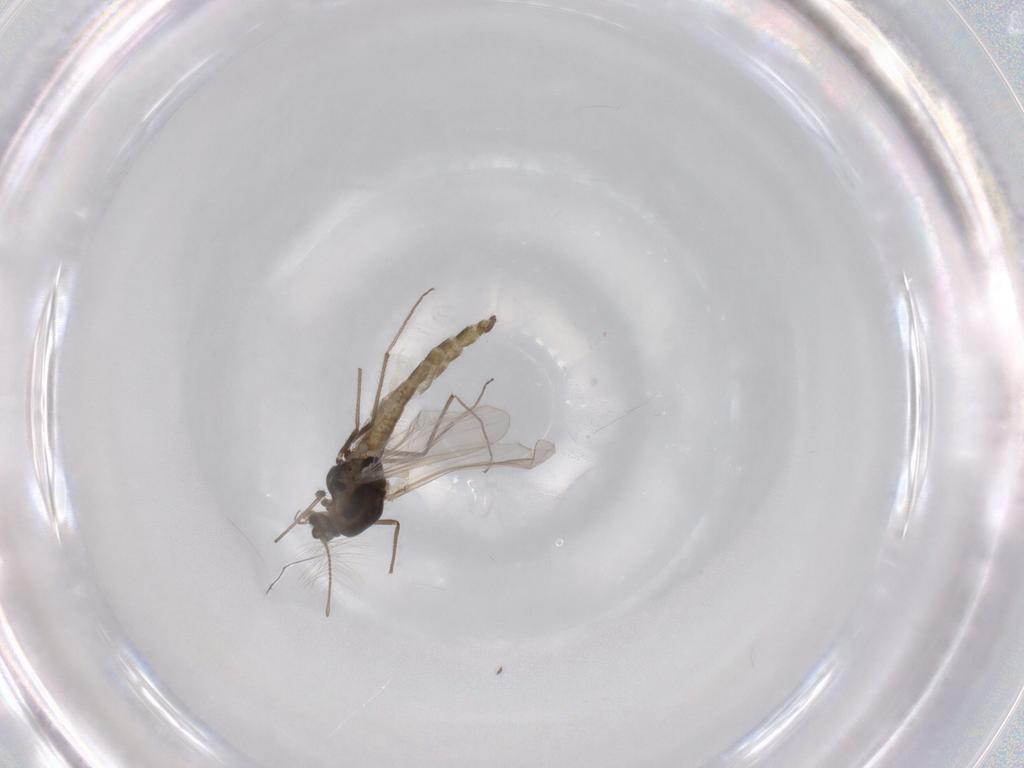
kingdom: Animalia
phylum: Arthropoda
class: Insecta
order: Diptera
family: Chironomidae
